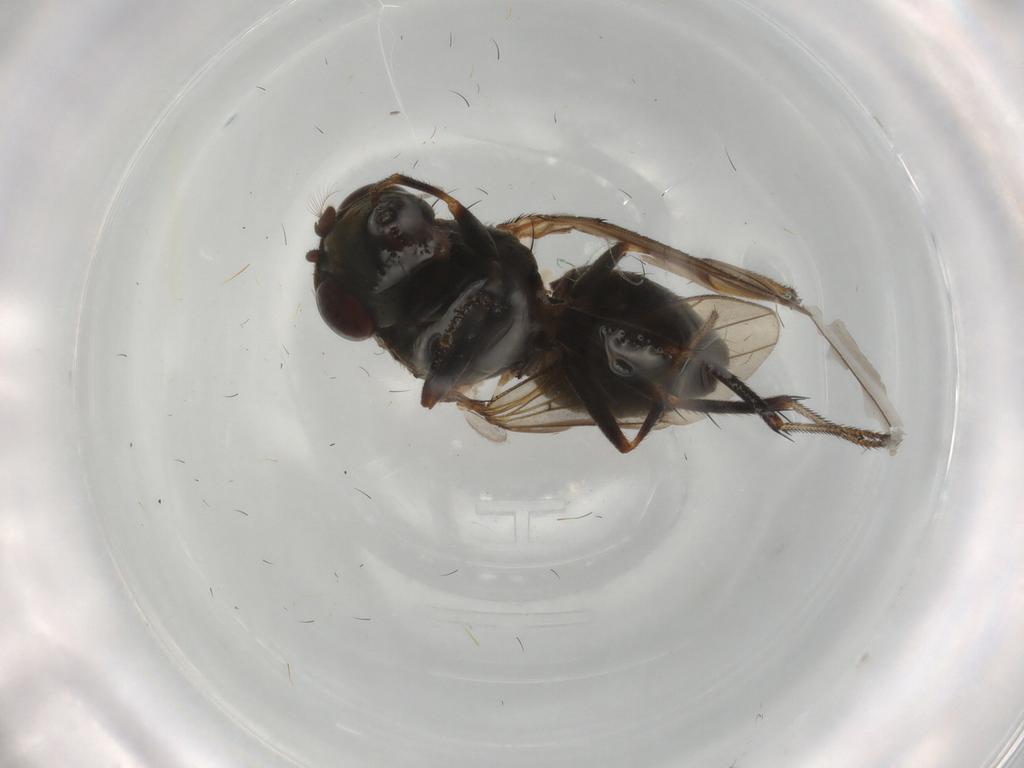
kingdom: Animalia
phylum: Arthropoda
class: Insecta
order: Diptera
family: Ephydridae
